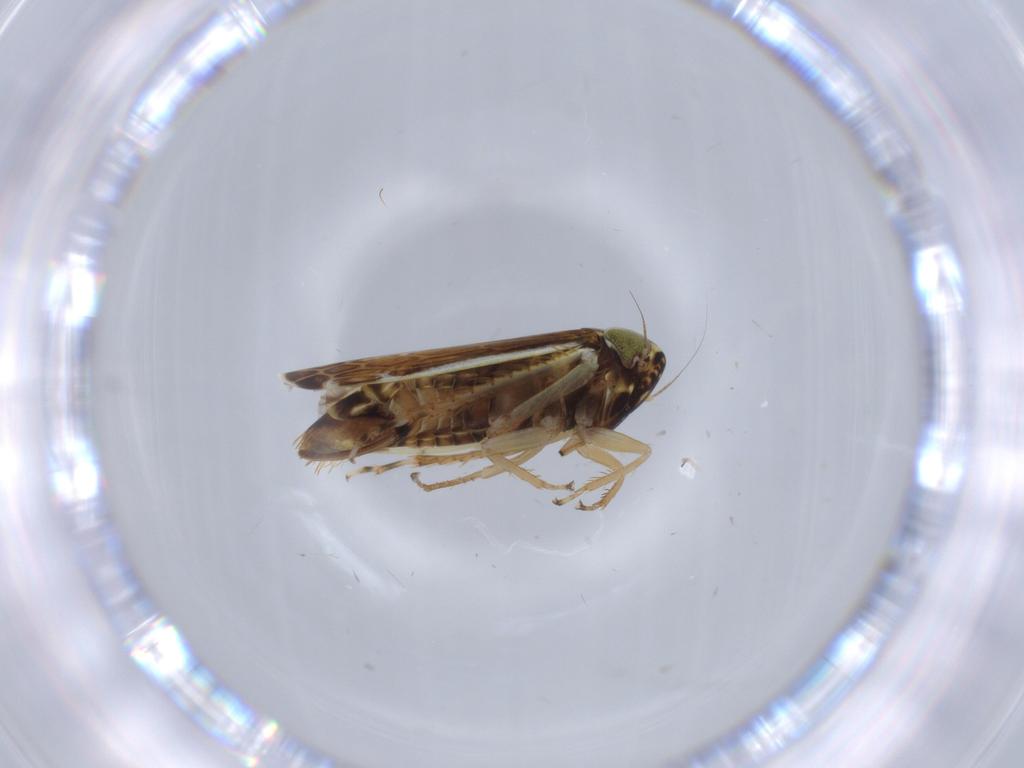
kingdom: Animalia
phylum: Arthropoda
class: Insecta
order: Hemiptera
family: Cicadellidae
